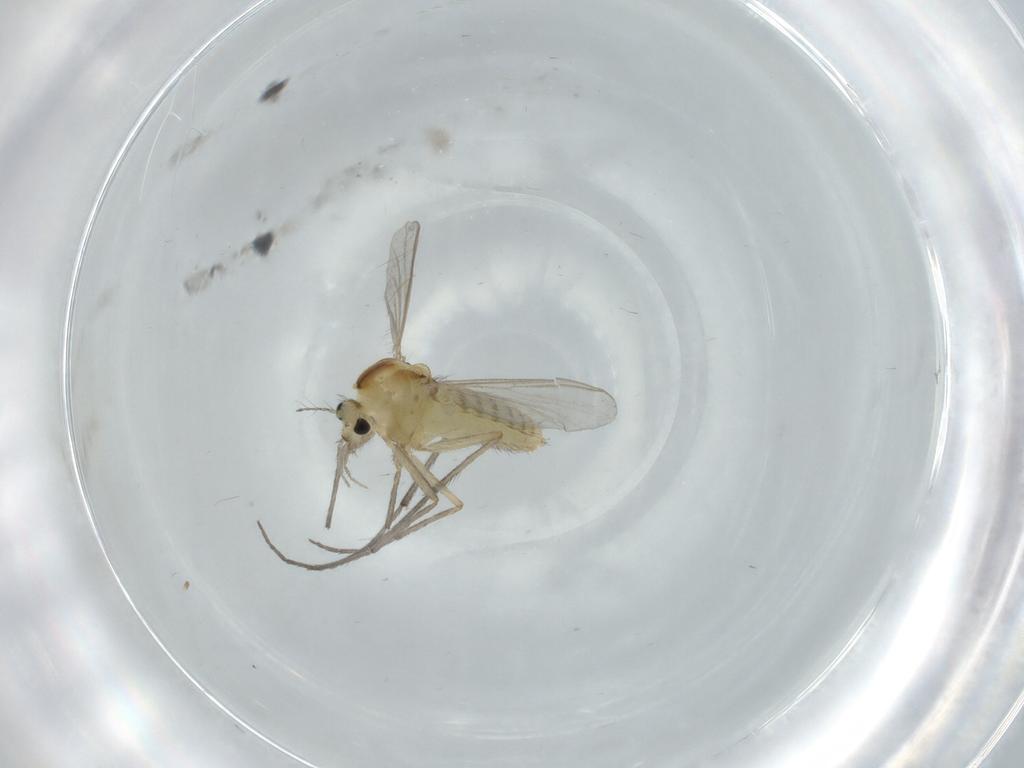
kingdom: Animalia
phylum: Arthropoda
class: Insecta
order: Diptera
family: Chironomidae
